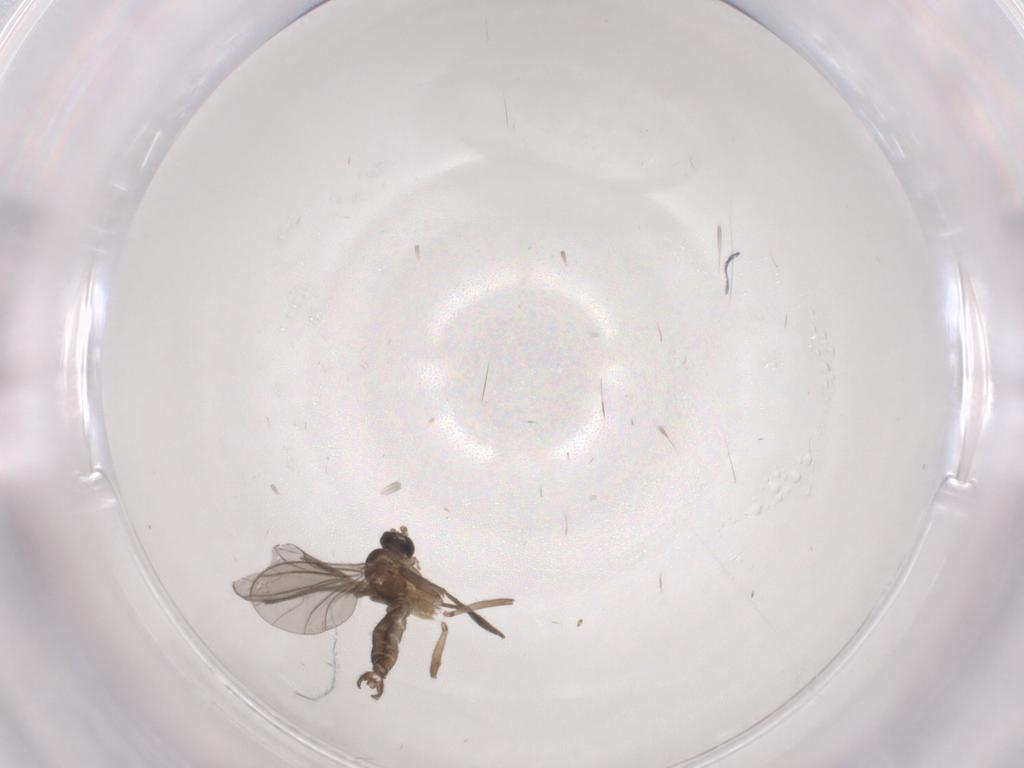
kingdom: Animalia
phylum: Arthropoda
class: Insecta
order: Diptera
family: Sciaridae
